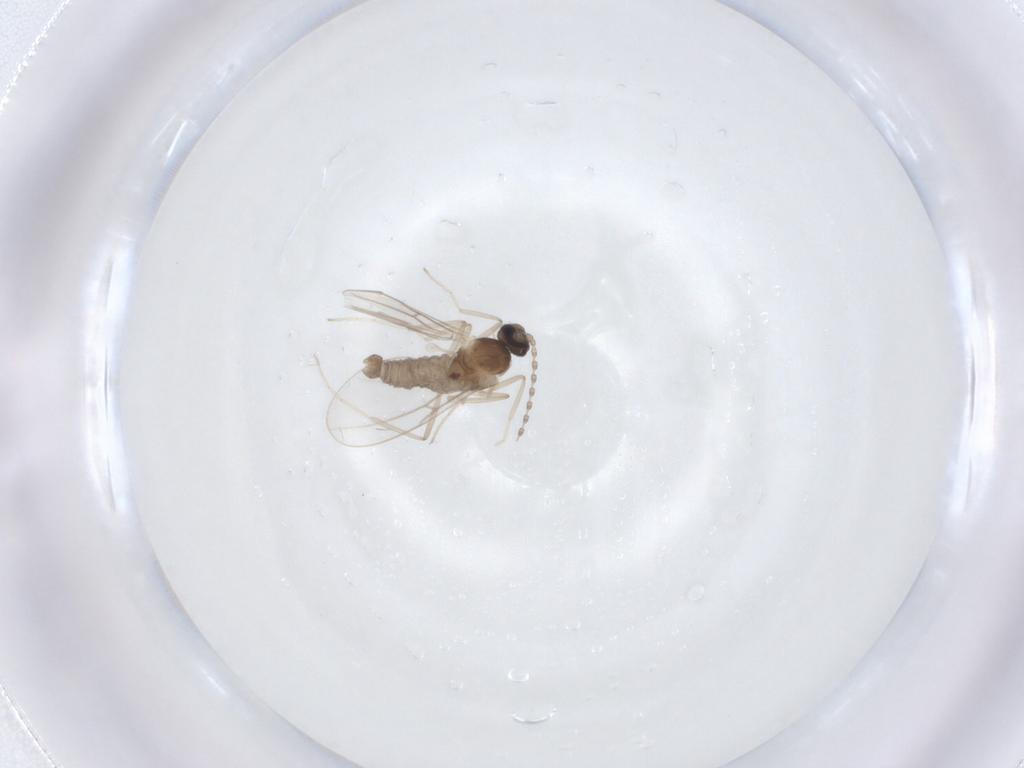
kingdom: Animalia
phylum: Arthropoda
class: Insecta
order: Diptera
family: Cecidomyiidae
